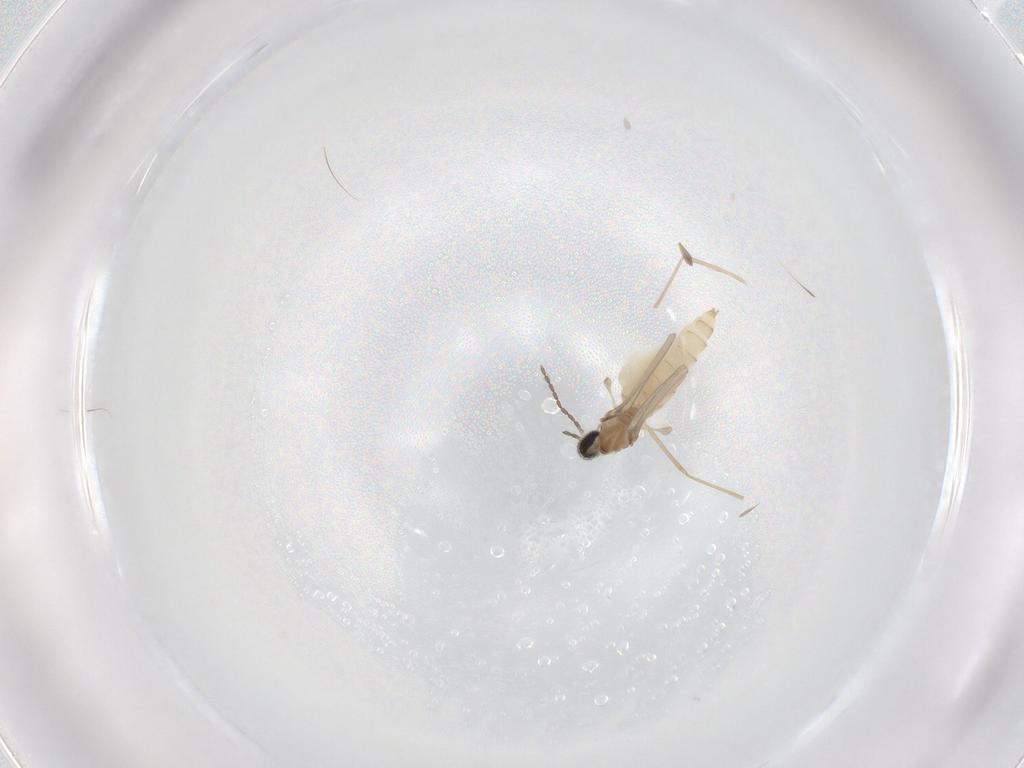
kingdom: Animalia
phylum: Arthropoda
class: Insecta
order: Diptera
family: Cecidomyiidae
